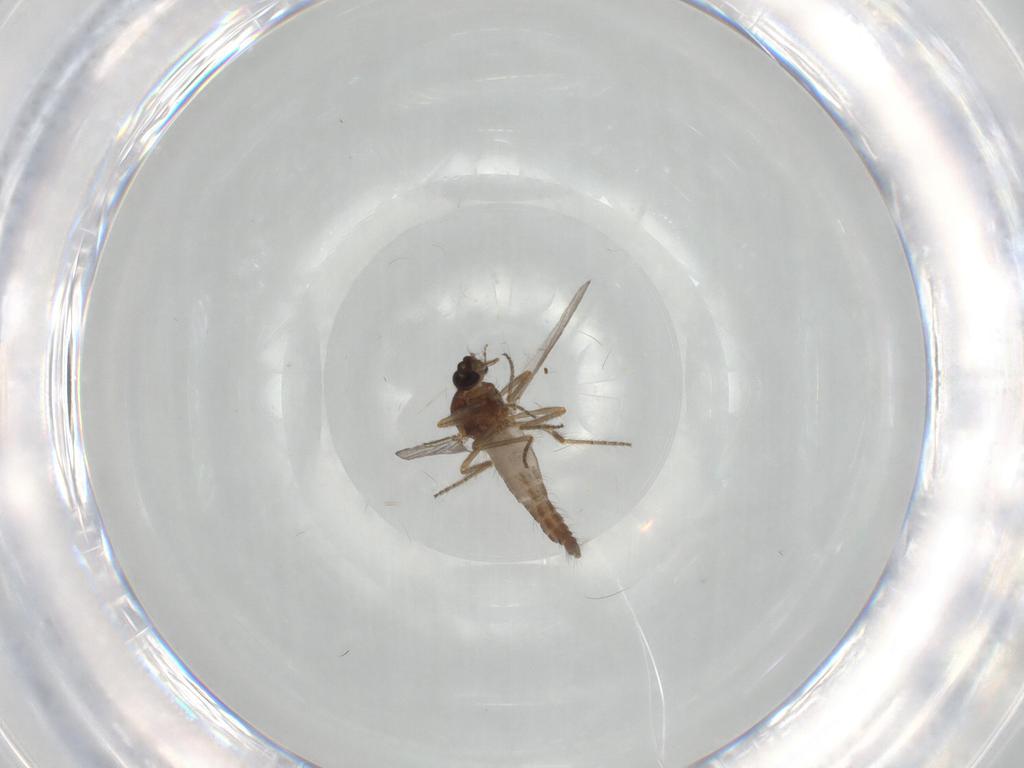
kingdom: Animalia
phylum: Arthropoda
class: Insecta
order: Diptera
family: Ceratopogonidae
